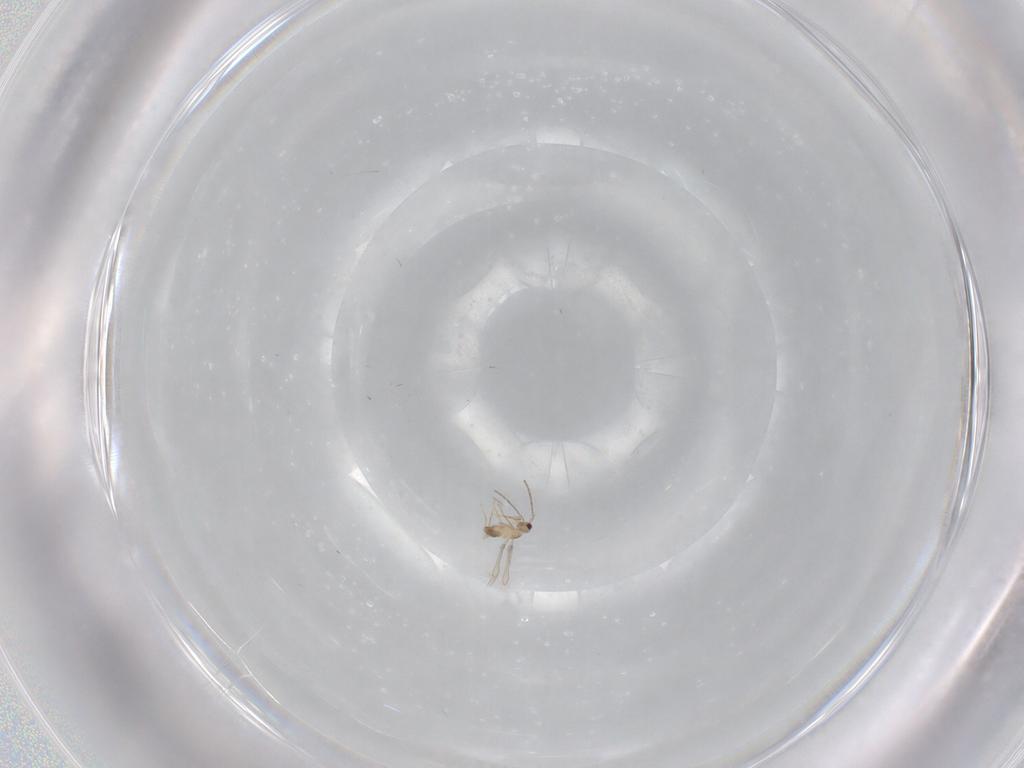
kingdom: Animalia
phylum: Arthropoda
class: Insecta
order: Hymenoptera
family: Mymaridae
